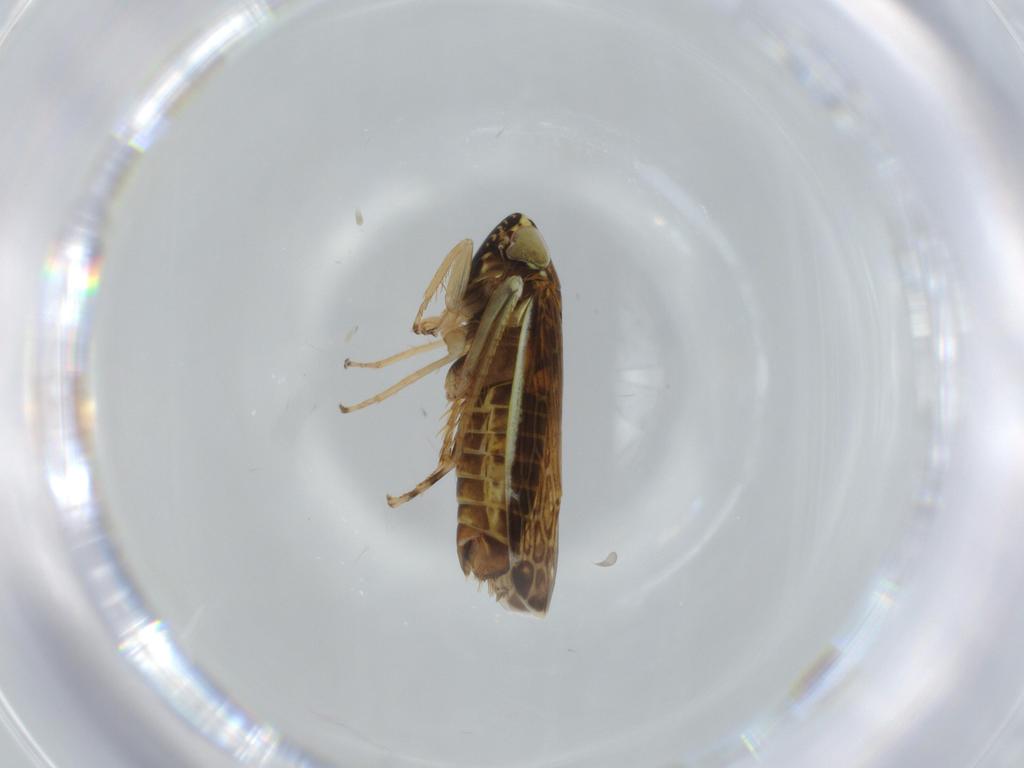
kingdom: Animalia
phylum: Arthropoda
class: Insecta
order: Hemiptera
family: Cicadellidae
